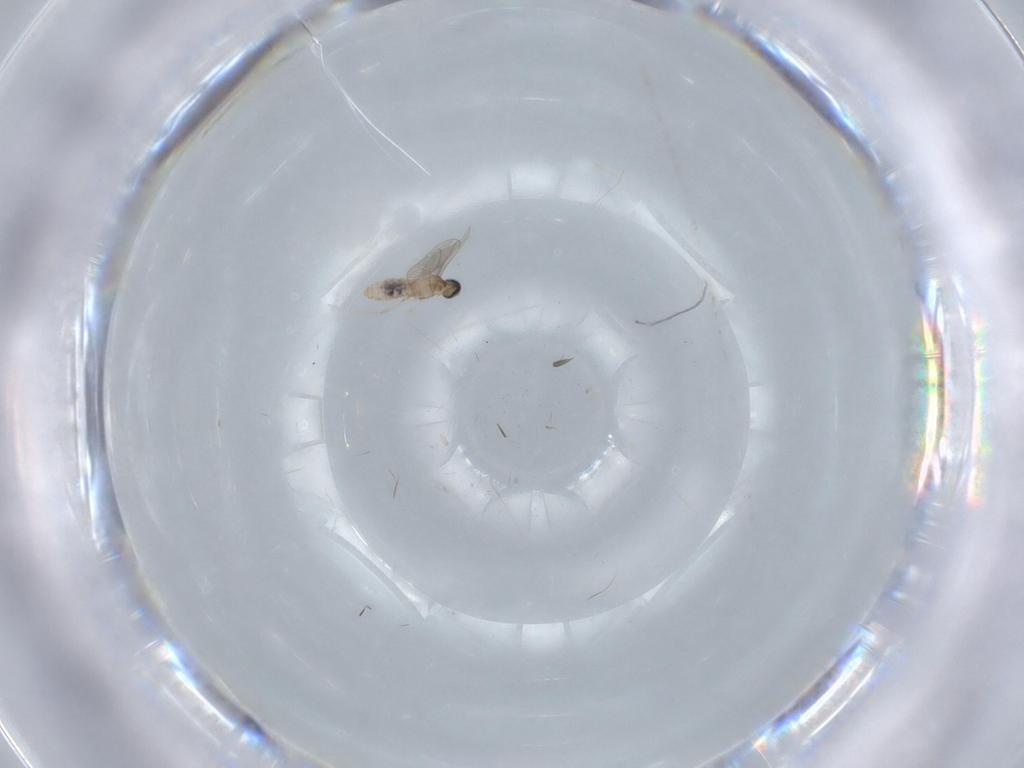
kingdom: Animalia
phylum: Arthropoda
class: Insecta
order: Diptera
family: Cecidomyiidae
